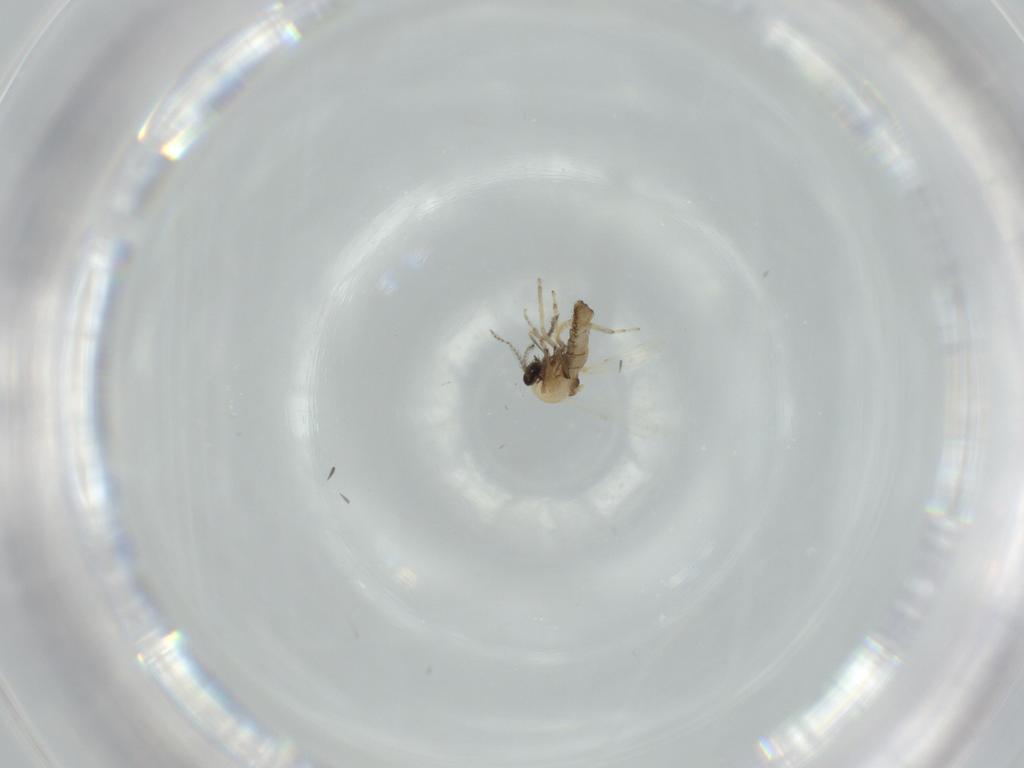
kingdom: Animalia
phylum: Arthropoda
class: Insecta
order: Diptera
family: Ceratopogonidae
